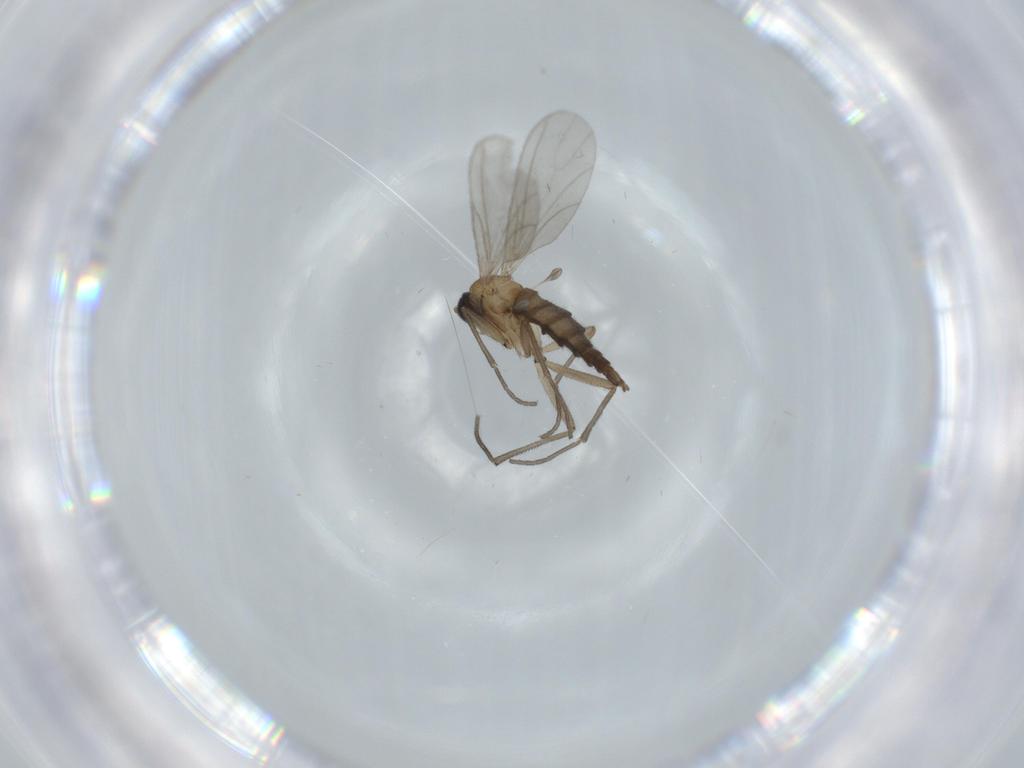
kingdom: Animalia
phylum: Arthropoda
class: Insecta
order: Diptera
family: Sciaridae
